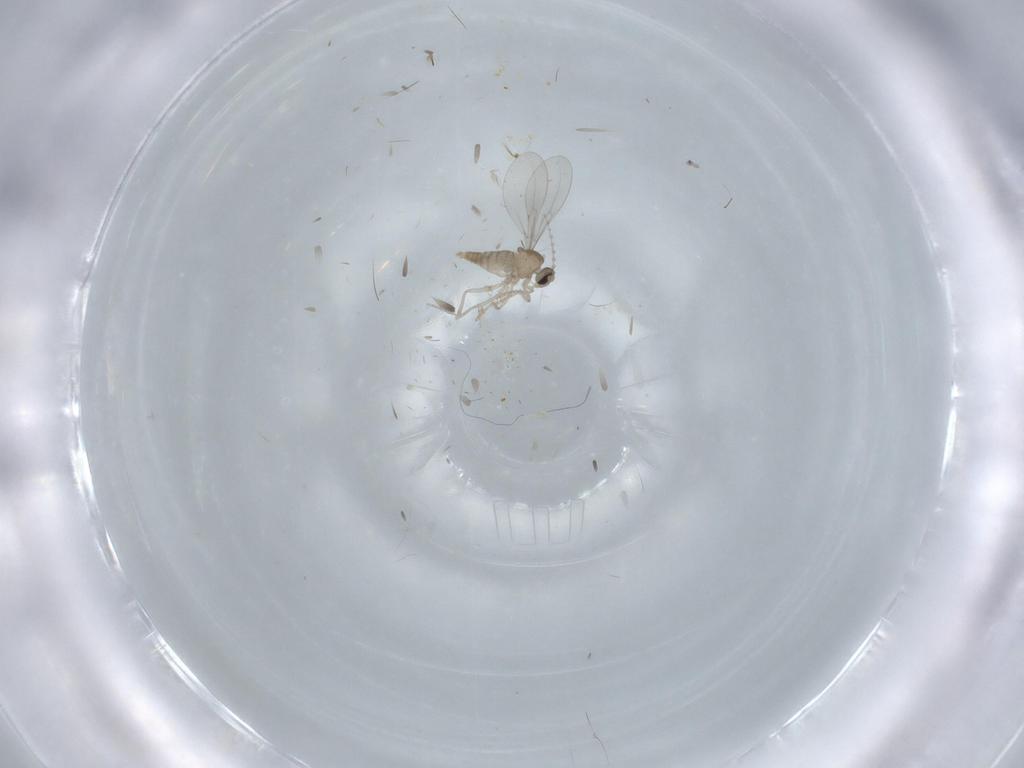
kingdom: Animalia
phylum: Arthropoda
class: Insecta
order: Diptera
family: Cecidomyiidae
